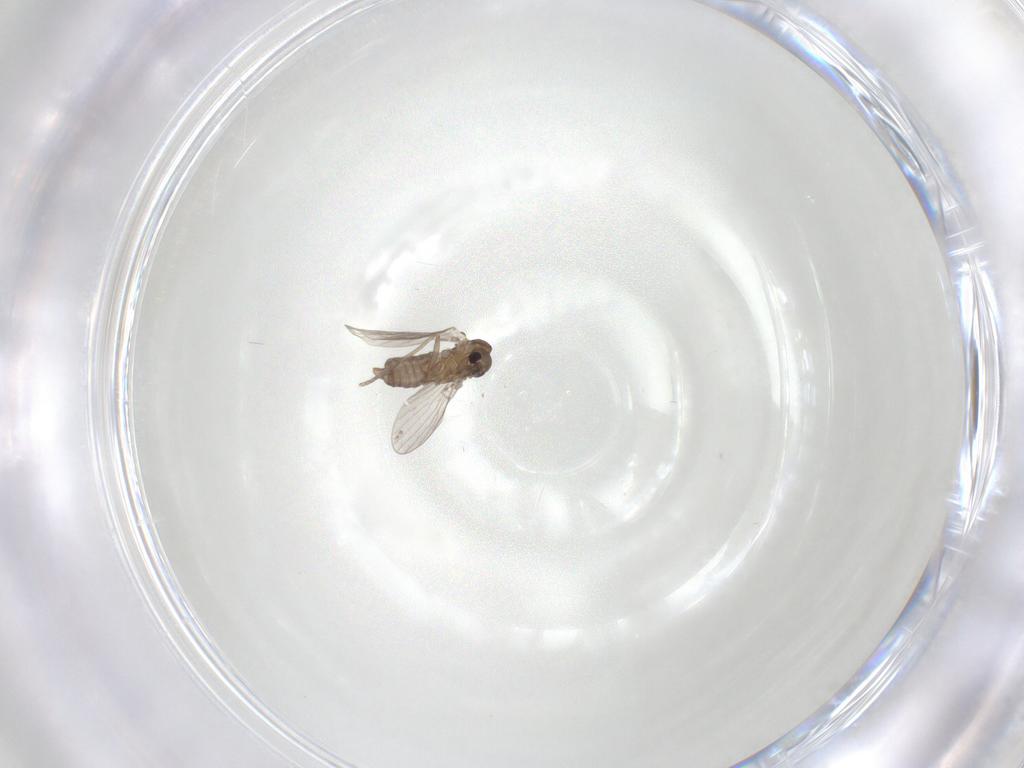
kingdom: Animalia
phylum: Arthropoda
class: Insecta
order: Diptera
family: Psychodidae
